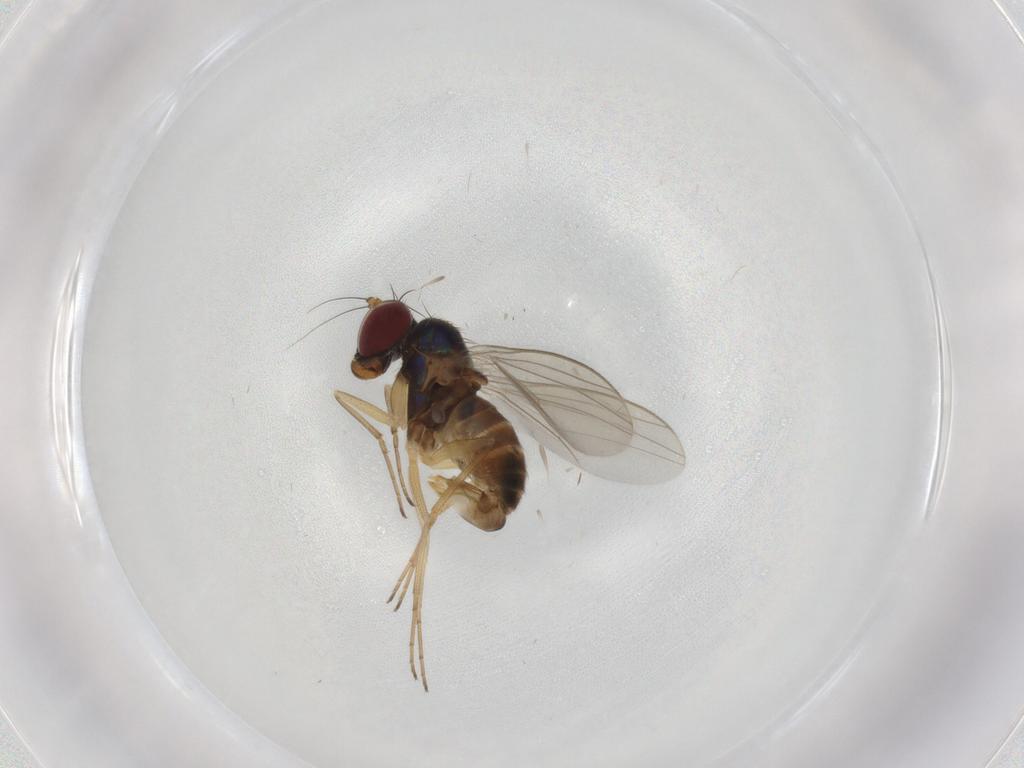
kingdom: Animalia
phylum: Arthropoda
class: Insecta
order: Diptera
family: Dolichopodidae
